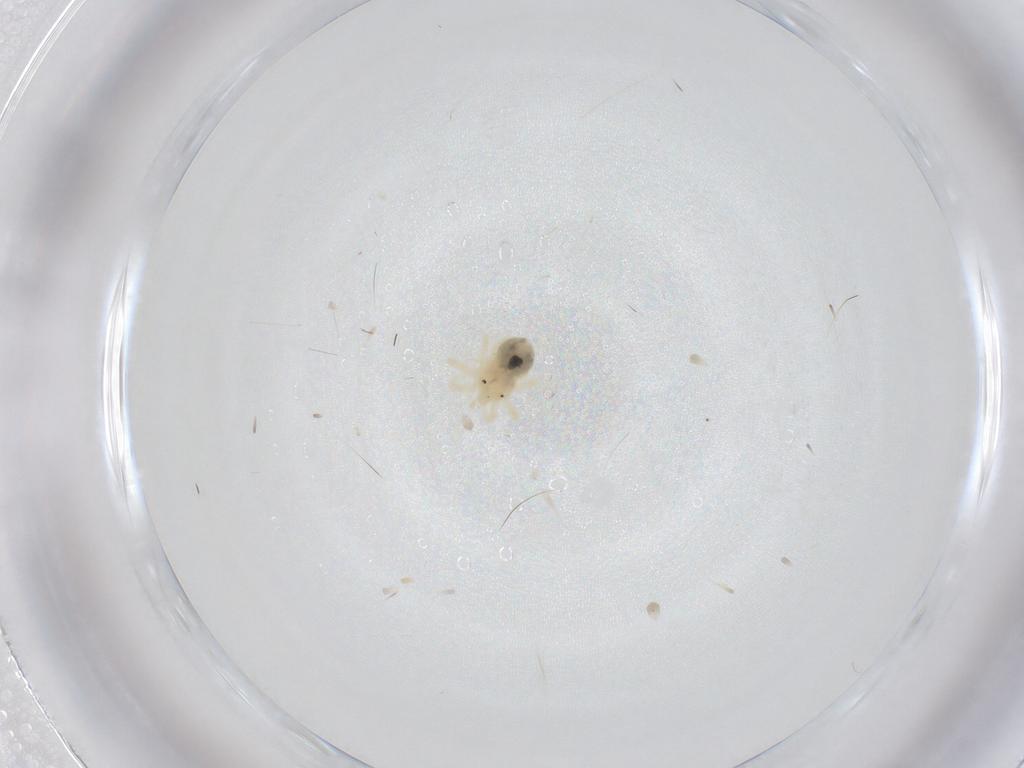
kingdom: Animalia
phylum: Arthropoda
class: Arachnida
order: Trombidiformes
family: Anystidae
